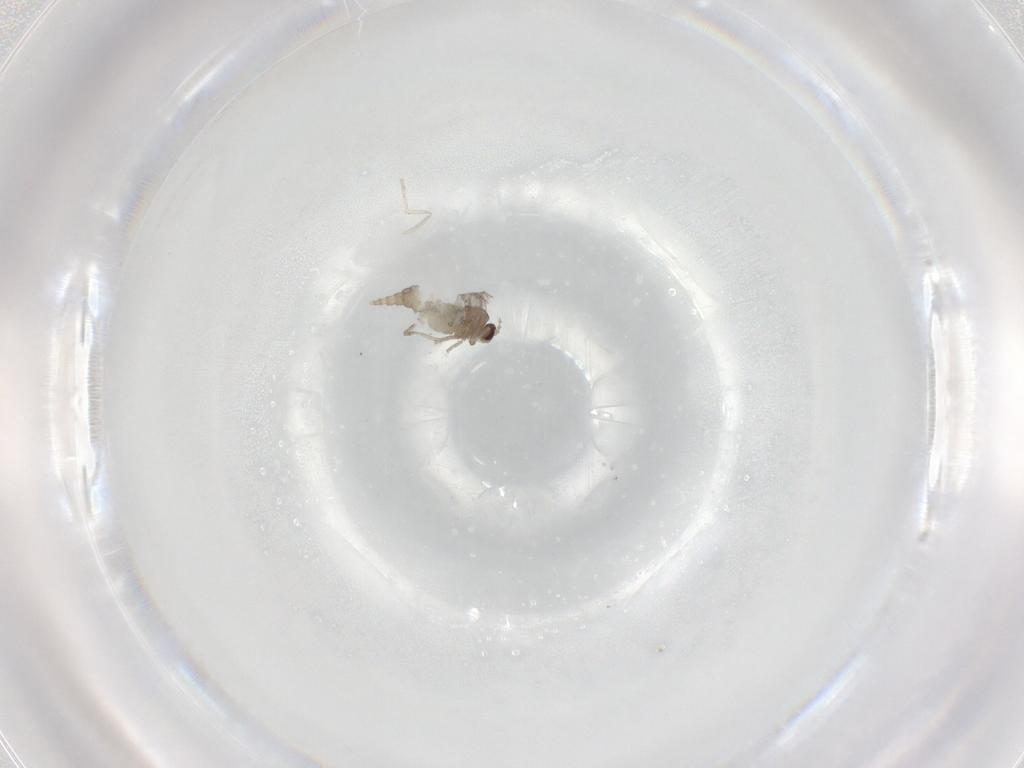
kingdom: Animalia
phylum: Arthropoda
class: Insecta
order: Diptera
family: Cecidomyiidae
